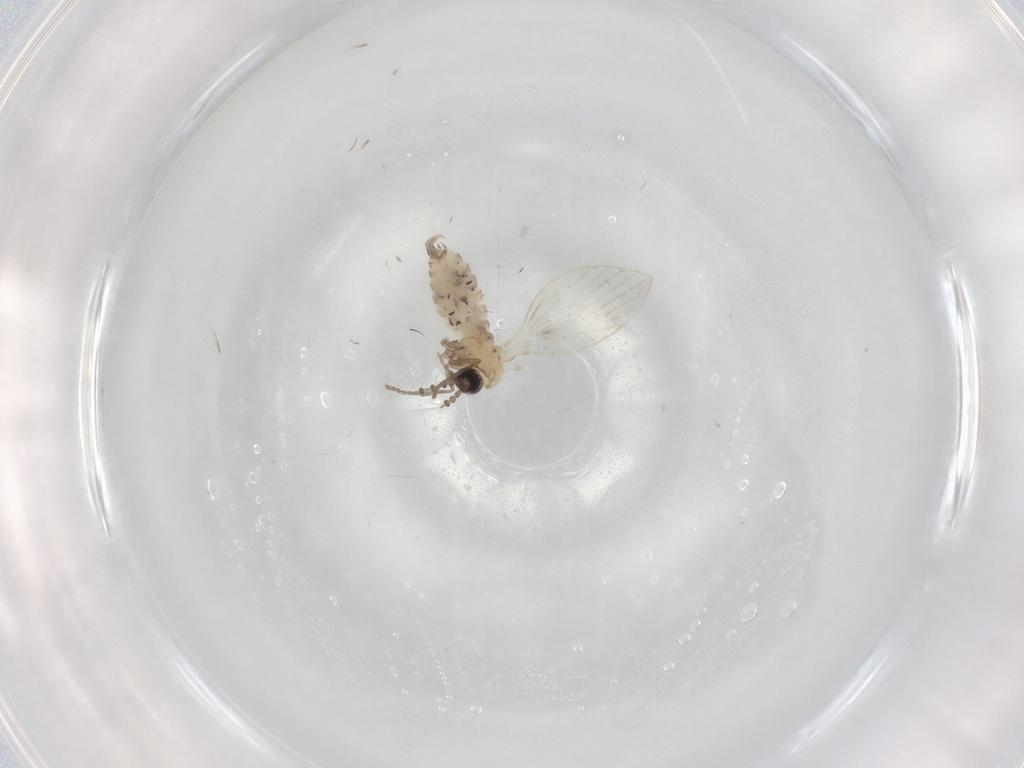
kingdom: Animalia
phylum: Arthropoda
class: Insecta
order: Diptera
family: Psychodidae
